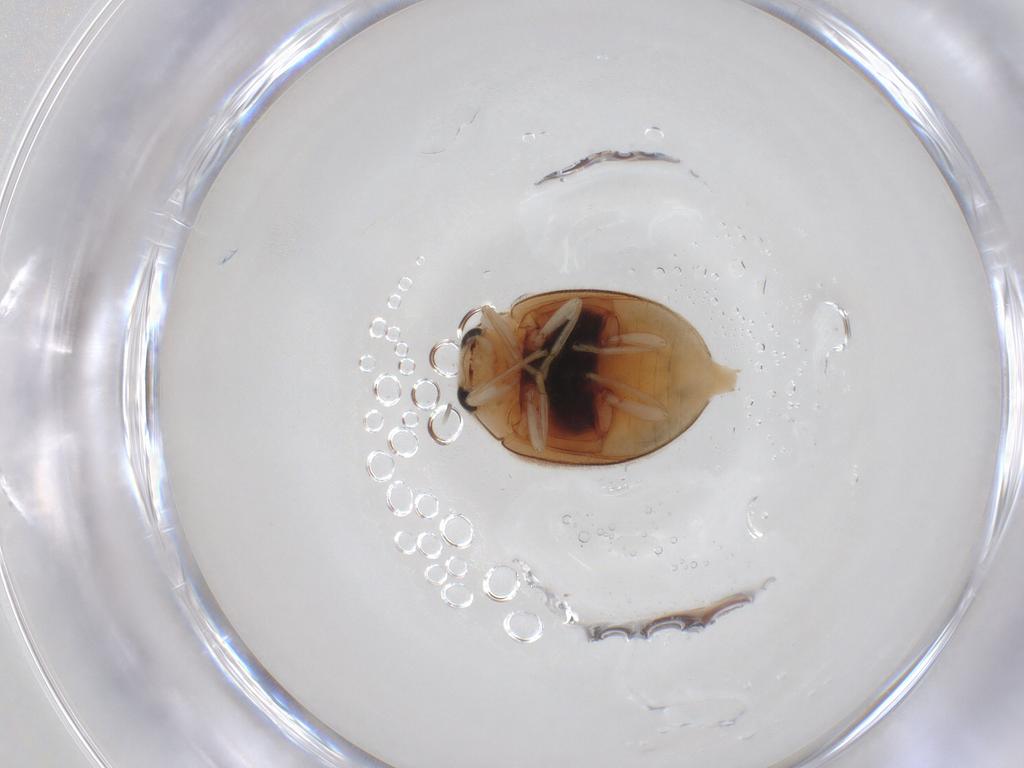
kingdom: Animalia
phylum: Arthropoda
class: Insecta
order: Coleoptera
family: Coccinellidae
